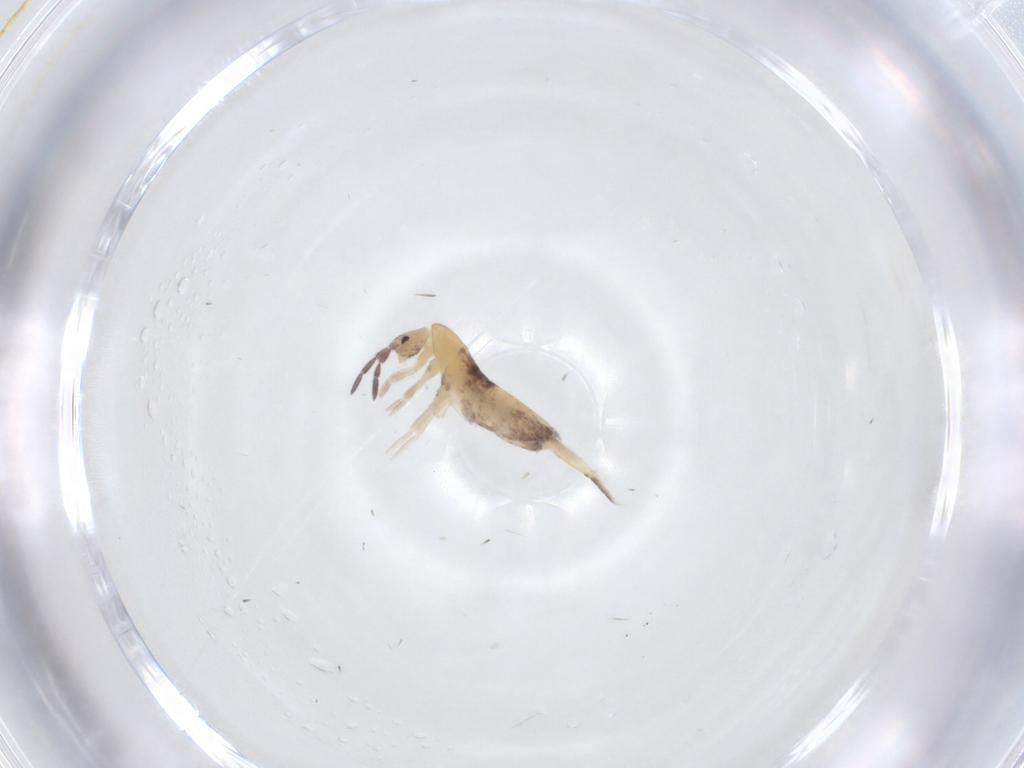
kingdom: Animalia
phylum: Arthropoda
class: Collembola
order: Entomobryomorpha
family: Entomobryidae
